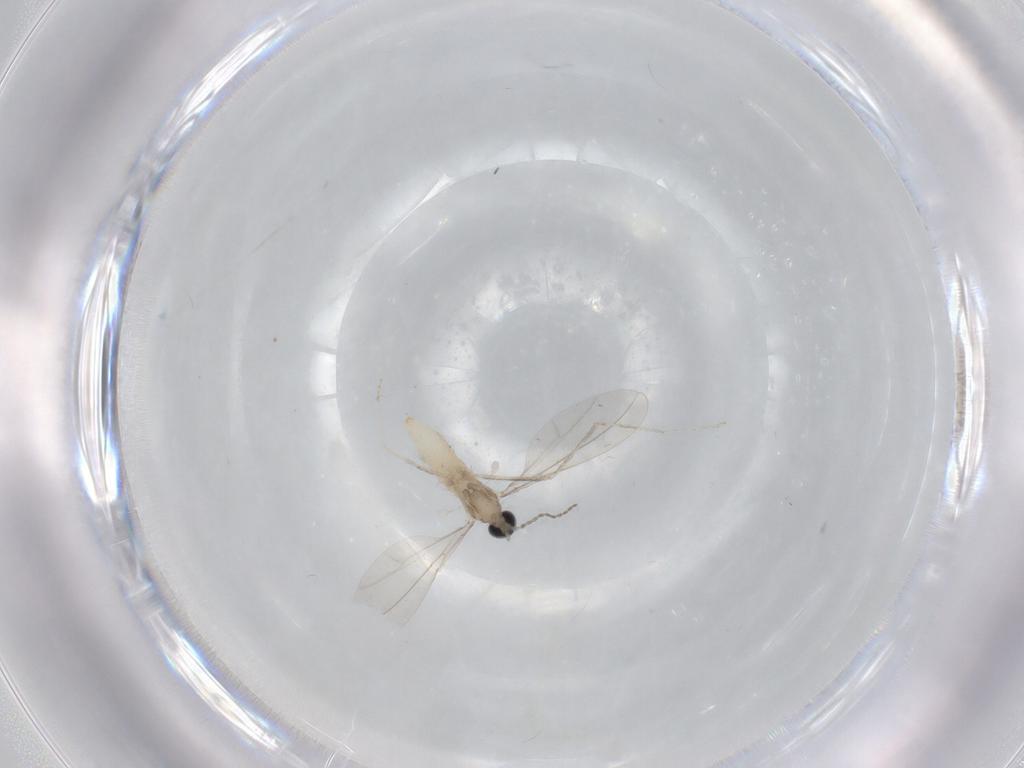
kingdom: Animalia
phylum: Arthropoda
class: Insecta
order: Diptera
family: Cecidomyiidae
